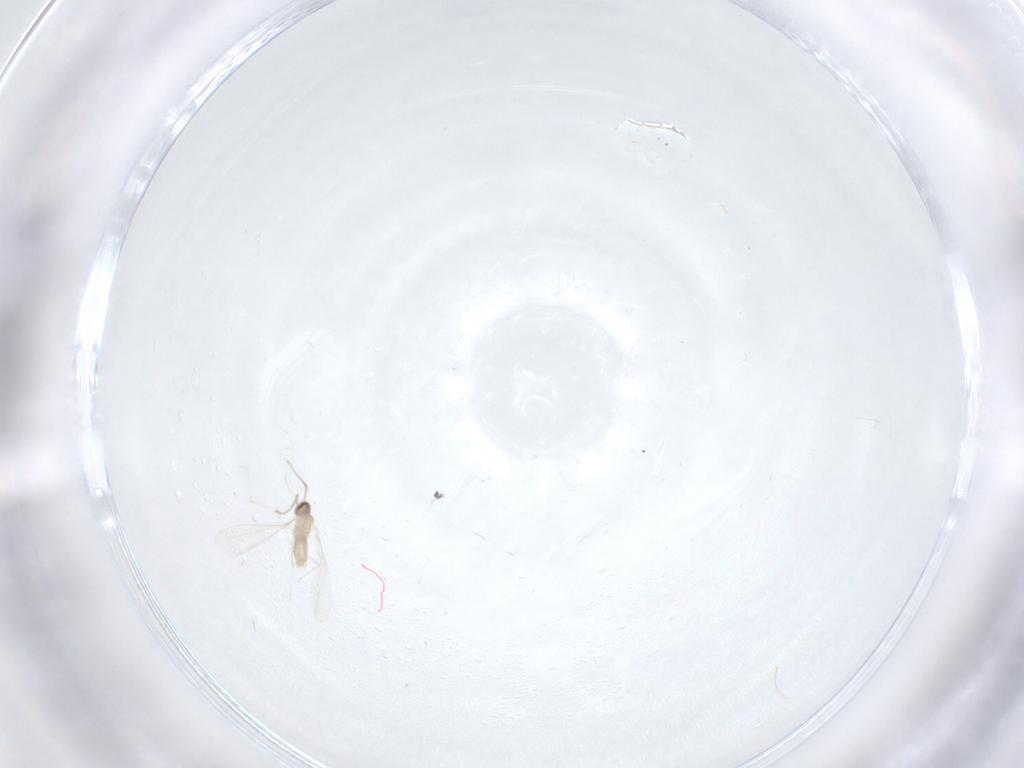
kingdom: Animalia
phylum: Arthropoda
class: Insecta
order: Diptera
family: Cecidomyiidae
